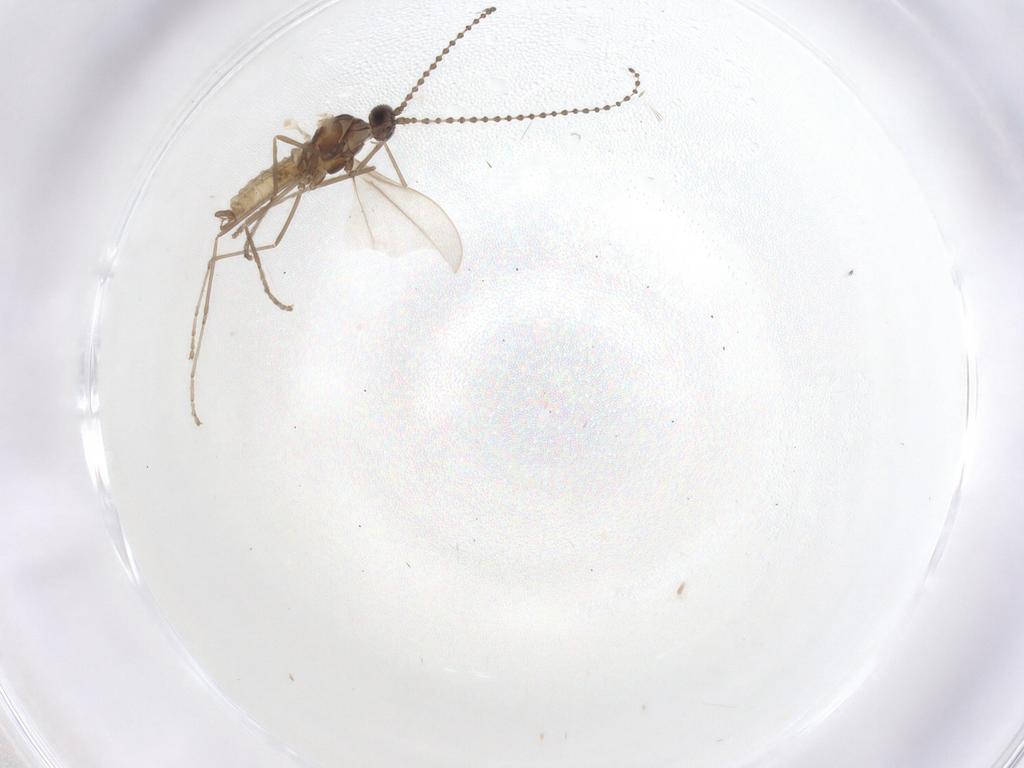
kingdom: Animalia
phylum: Arthropoda
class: Insecta
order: Diptera
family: Cecidomyiidae
